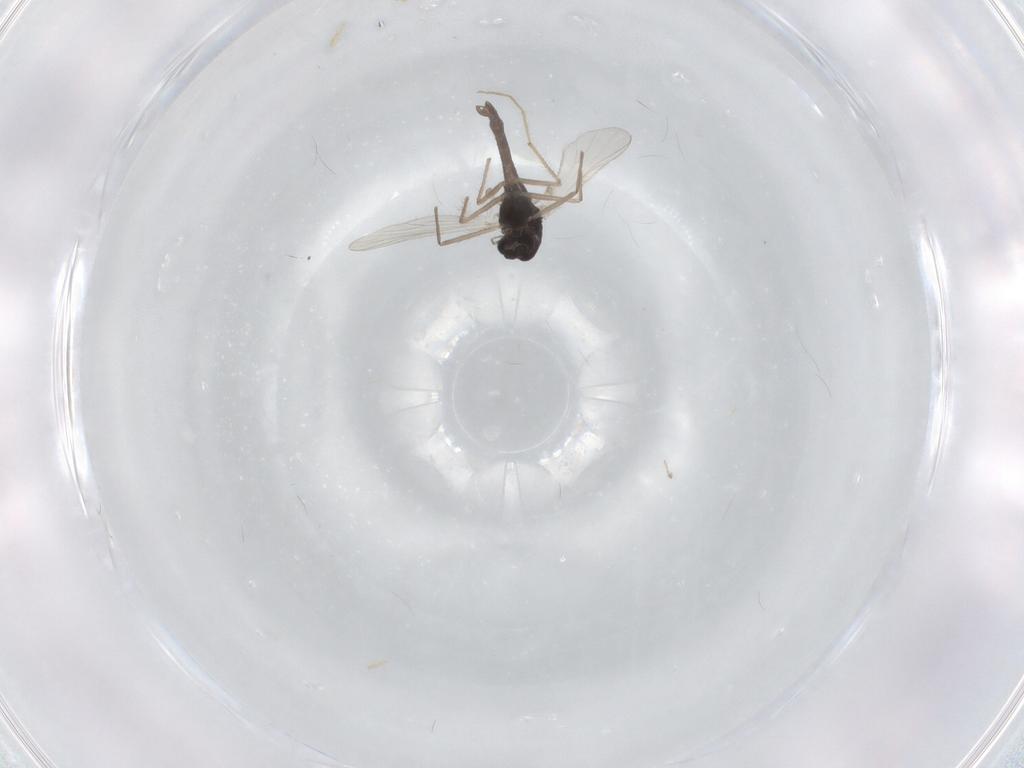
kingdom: Animalia
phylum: Arthropoda
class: Insecta
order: Diptera
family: Chironomidae
